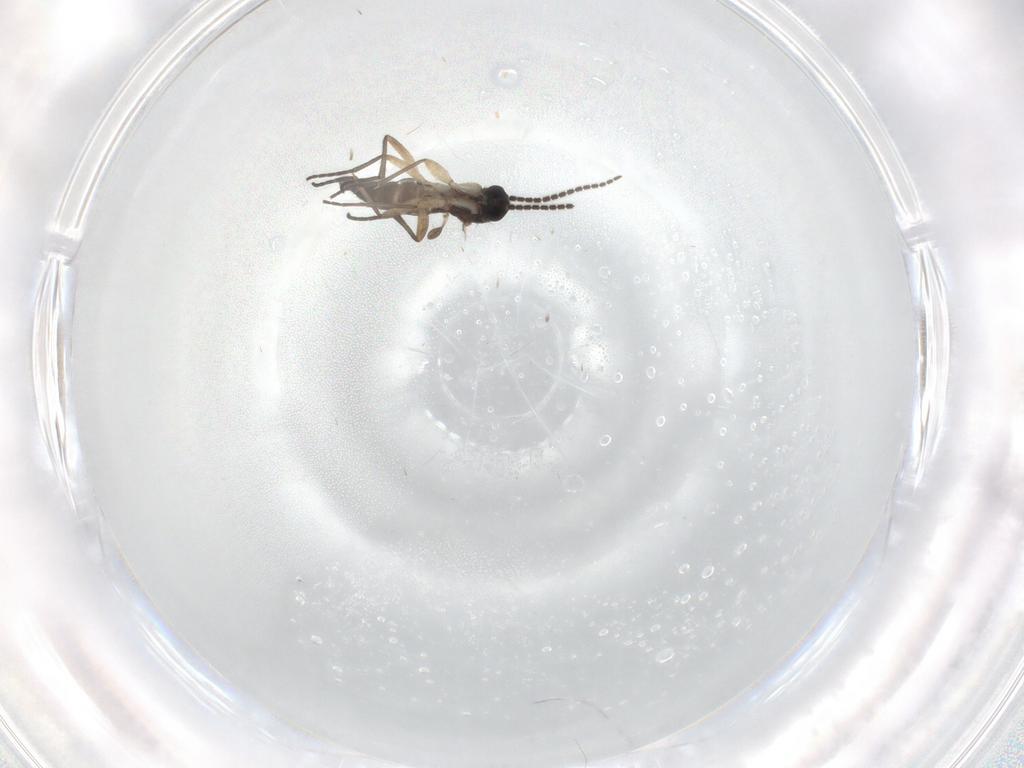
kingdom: Animalia
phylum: Arthropoda
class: Insecta
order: Diptera
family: Sciaridae
